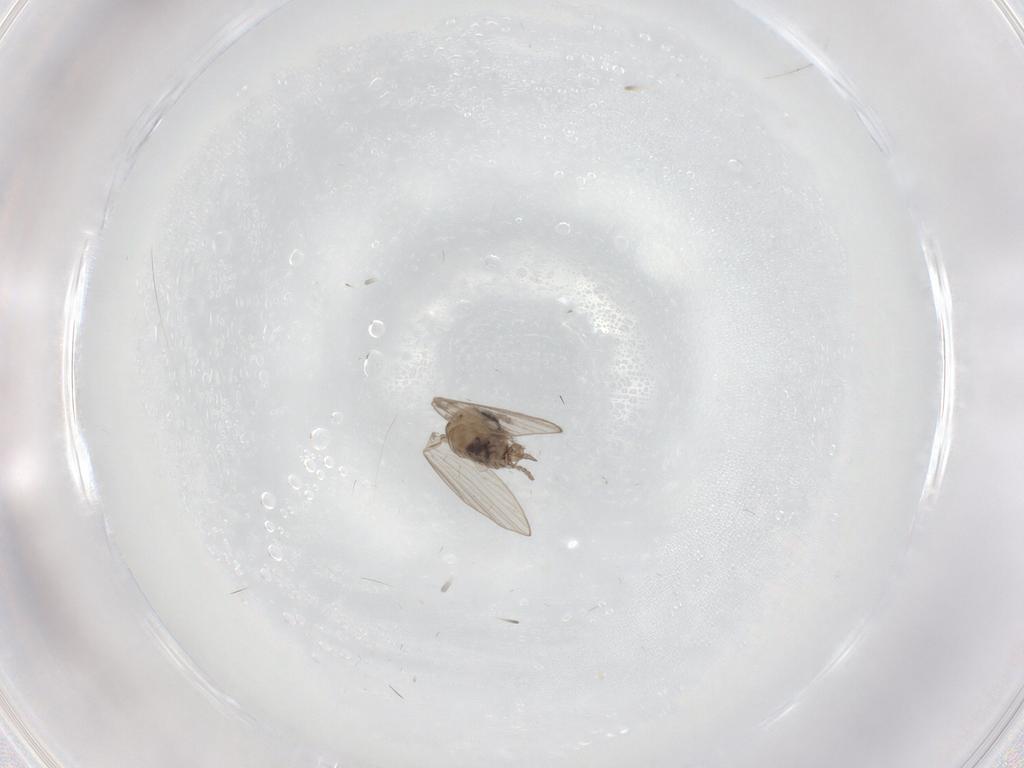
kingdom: Animalia
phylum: Arthropoda
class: Insecta
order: Diptera
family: Psychodidae
